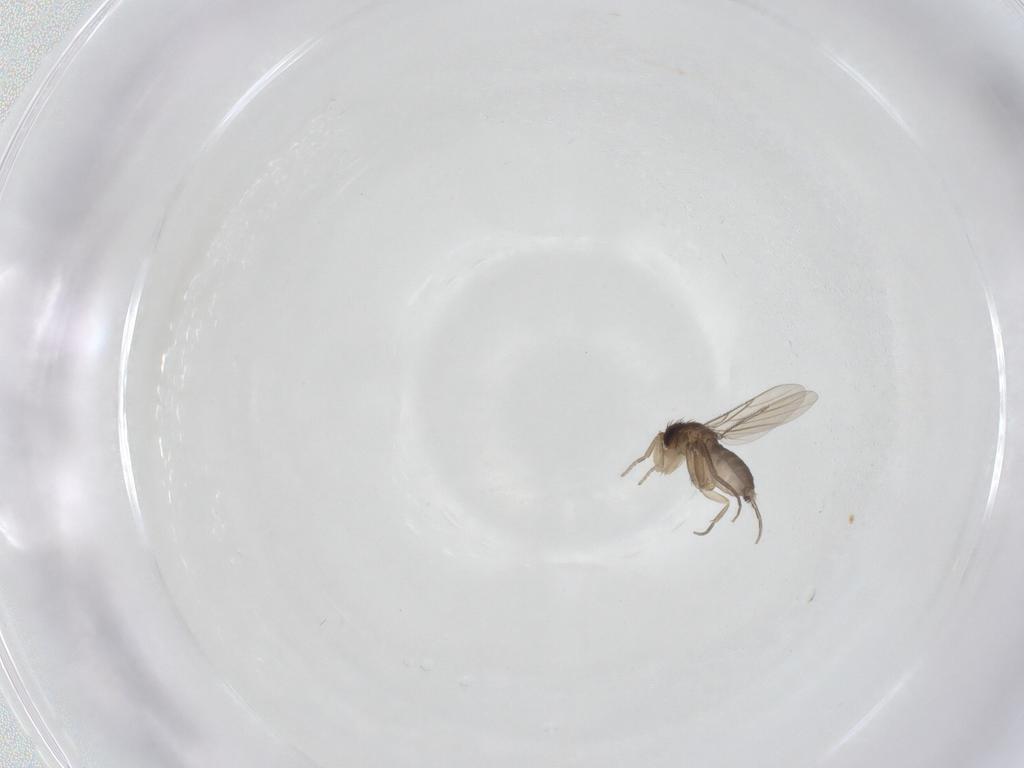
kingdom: Animalia
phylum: Arthropoda
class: Insecta
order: Diptera
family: Phoridae
